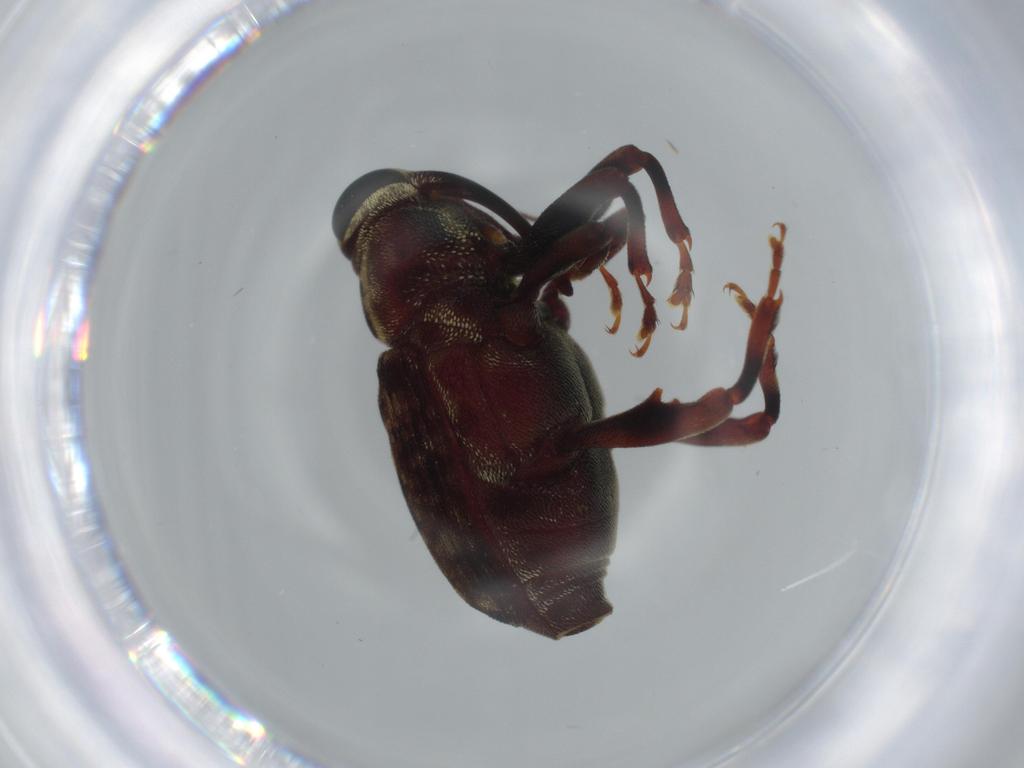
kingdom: Animalia
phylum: Arthropoda
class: Insecta
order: Coleoptera
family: Curculionidae
